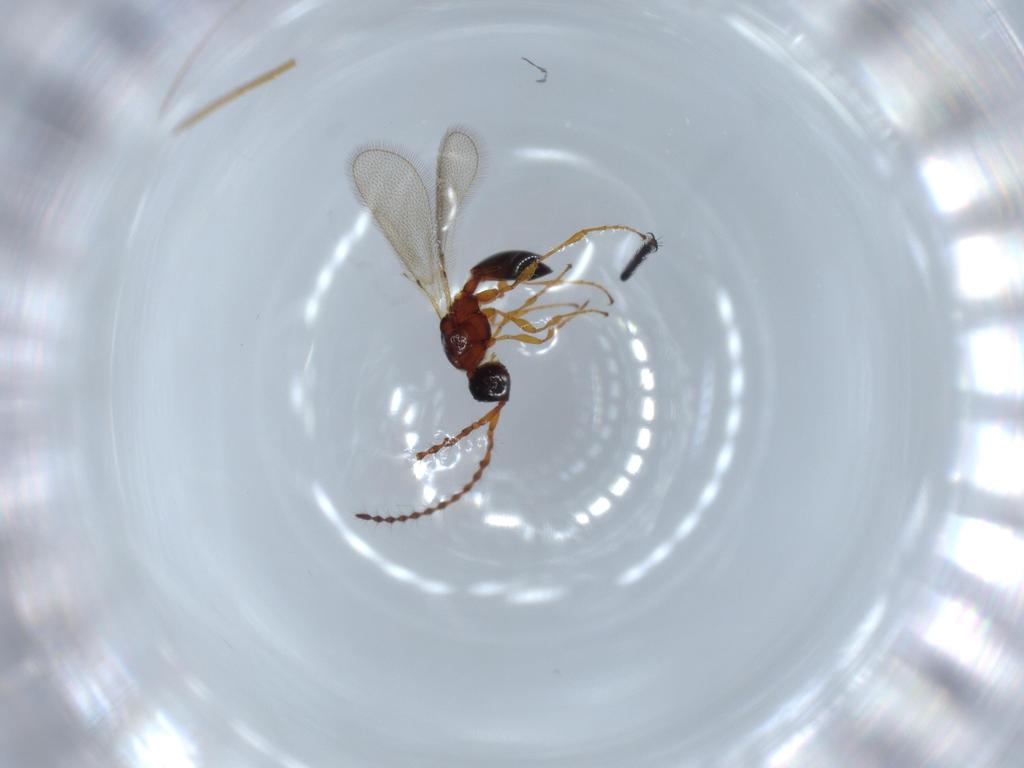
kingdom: Animalia
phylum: Arthropoda
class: Insecta
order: Hymenoptera
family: Diapriidae
